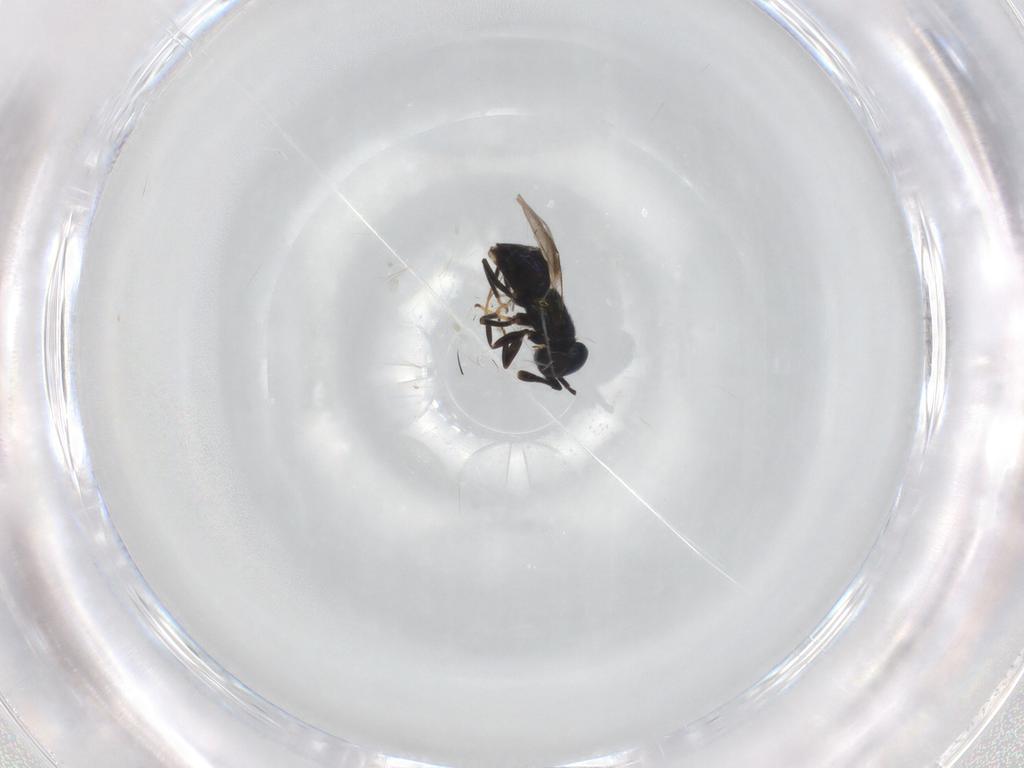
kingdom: Animalia
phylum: Arthropoda
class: Insecta
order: Hymenoptera
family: Encyrtidae
